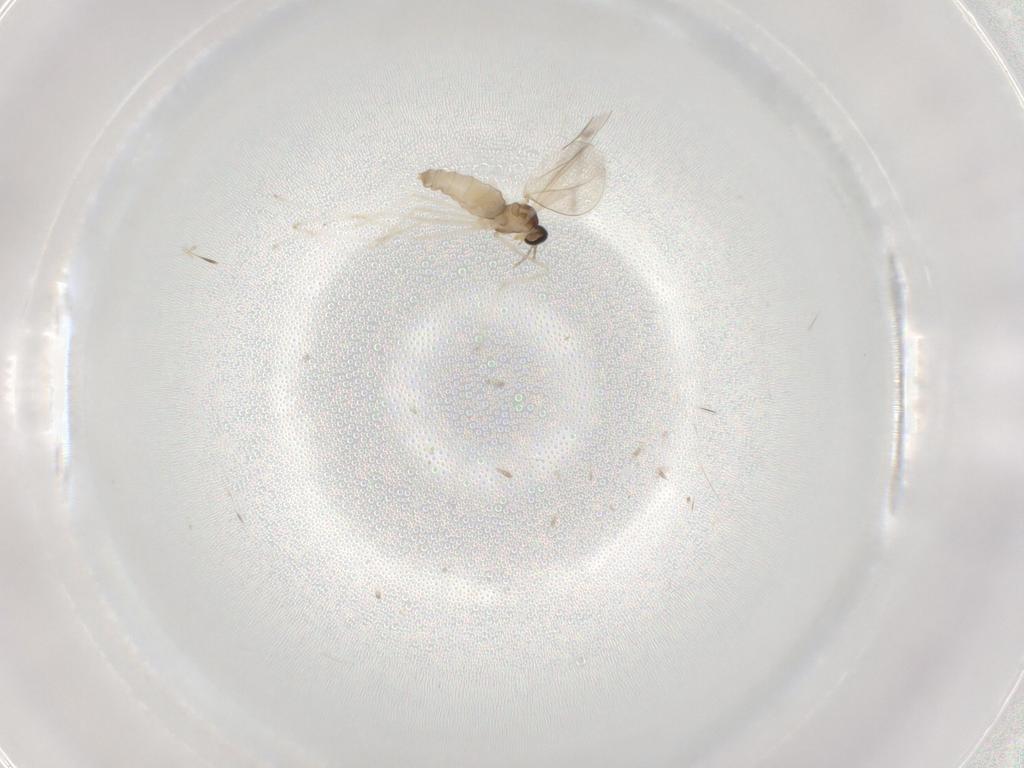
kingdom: Animalia
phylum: Arthropoda
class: Insecta
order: Diptera
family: Cecidomyiidae
